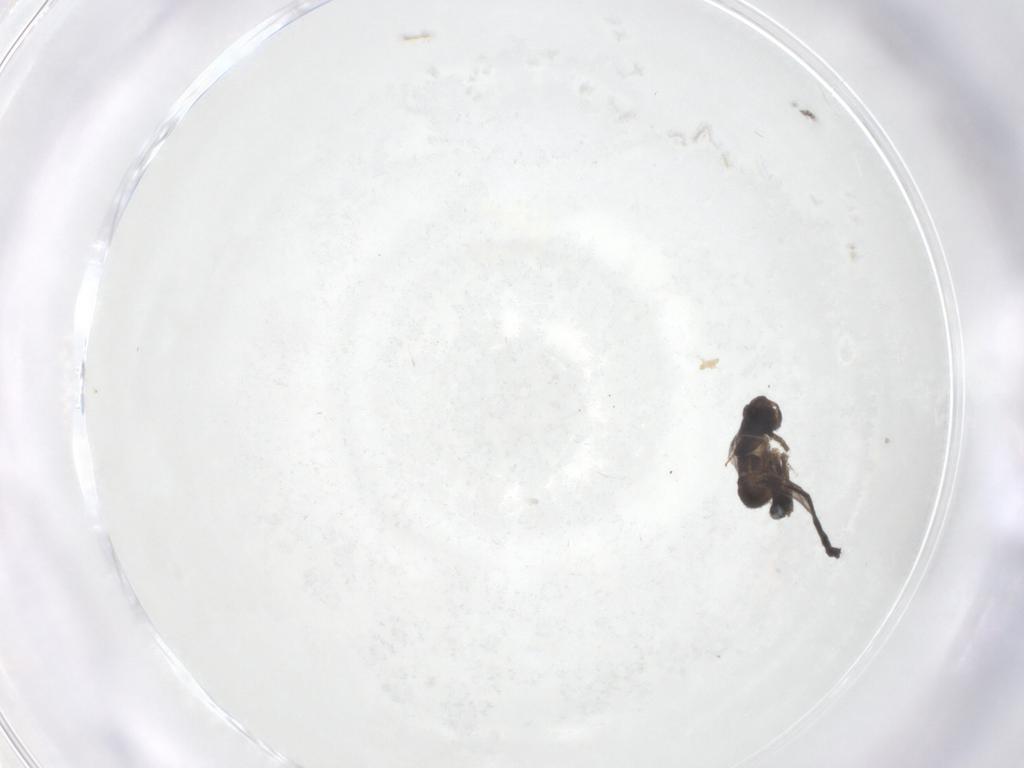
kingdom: Animalia
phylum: Arthropoda
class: Insecta
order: Diptera
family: Phoridae
